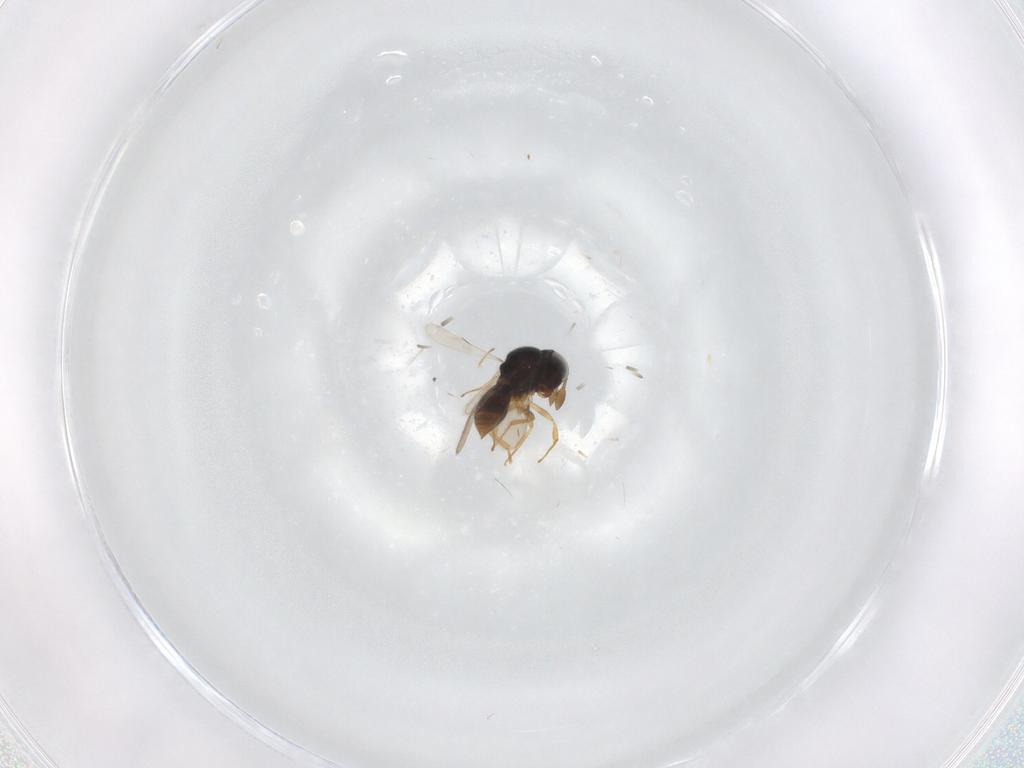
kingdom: Animalia
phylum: Arthropoda
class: Insecta
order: Hymenoptera
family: Scelionidae
